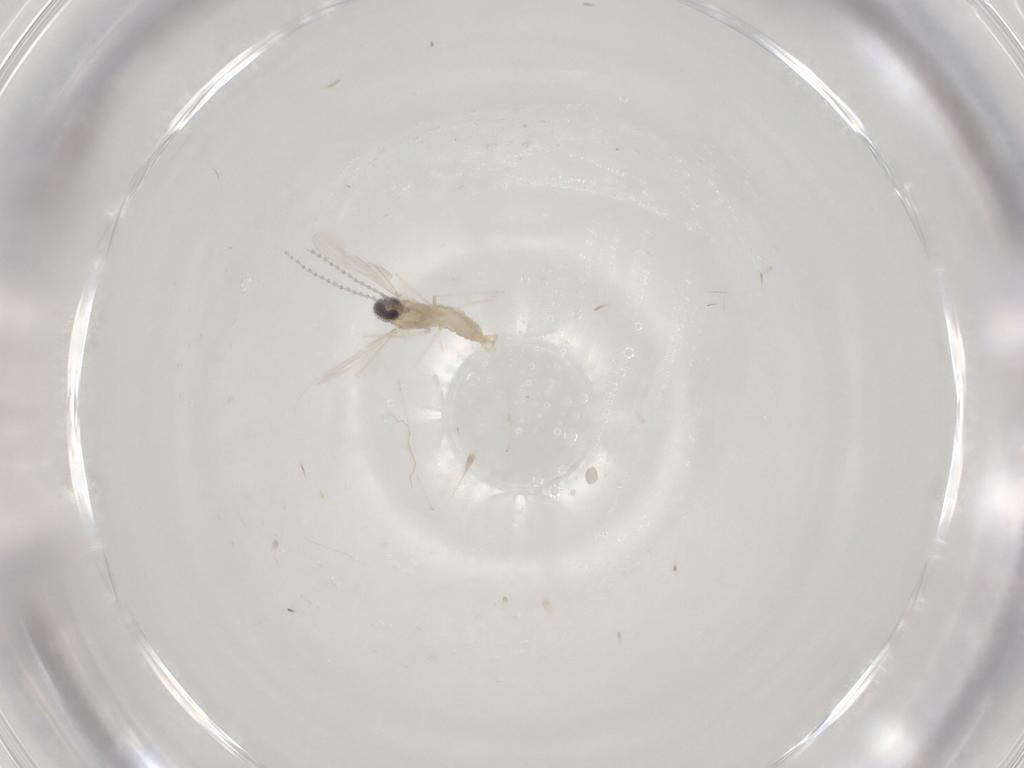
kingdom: Animalia
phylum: Arthropoda
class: Insecta
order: Diptera
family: Cecidomyiidae
